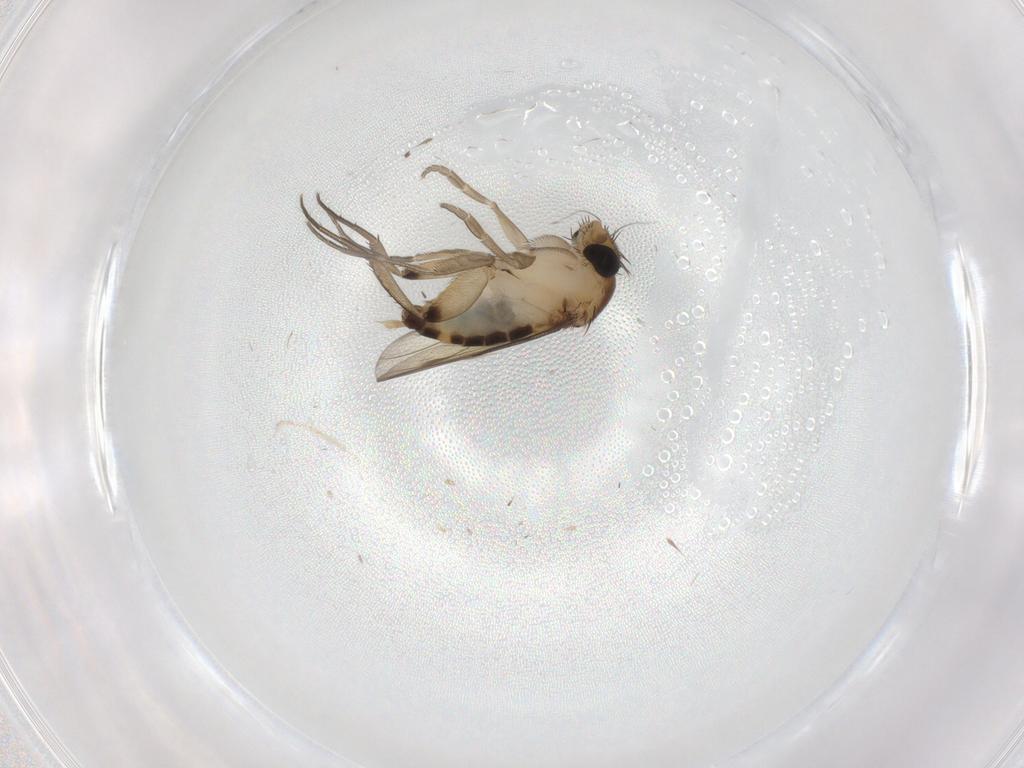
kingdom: Animalia
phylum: Arthropoda
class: Insecta
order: Diptera
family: Phoridae
